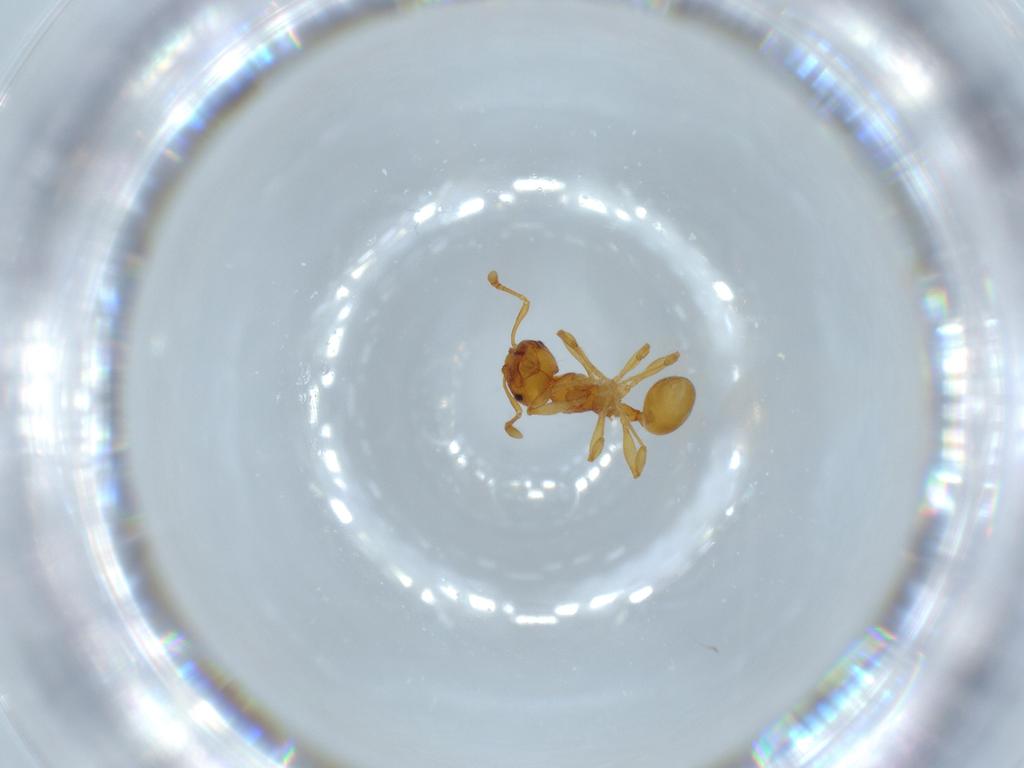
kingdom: Animalia
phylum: Arthropoda
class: Insecta
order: Hymenoptera
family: Formicidae
